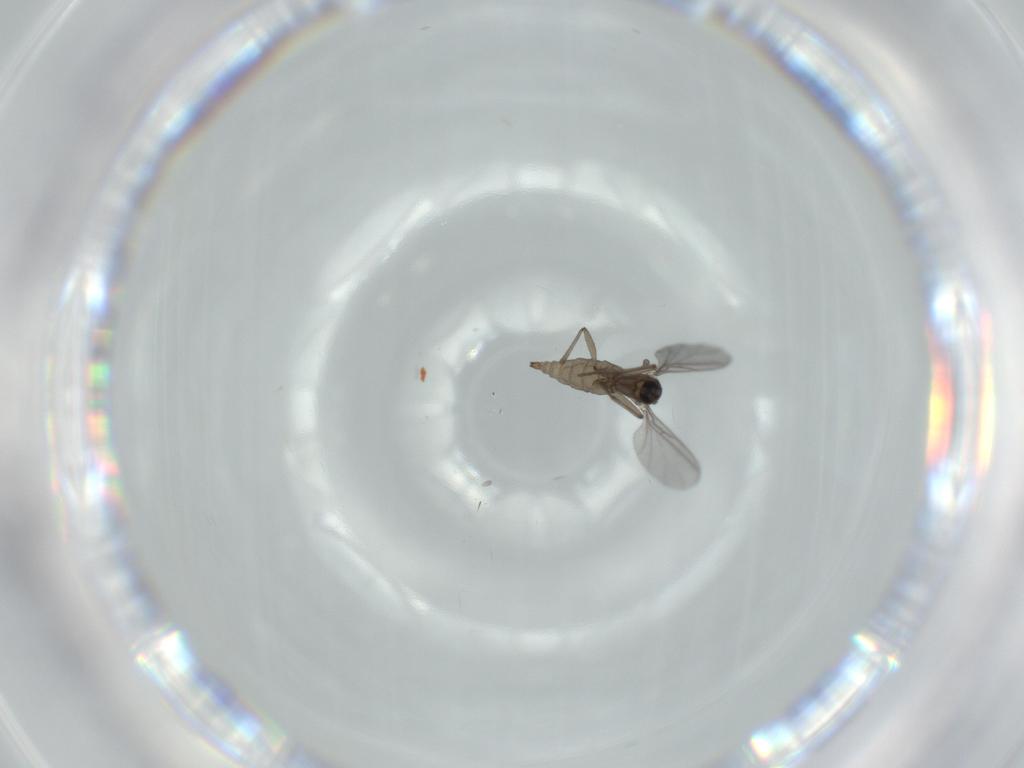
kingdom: Animalia
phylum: Arthropoda
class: Insecta
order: Diptera
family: Sciaridae
